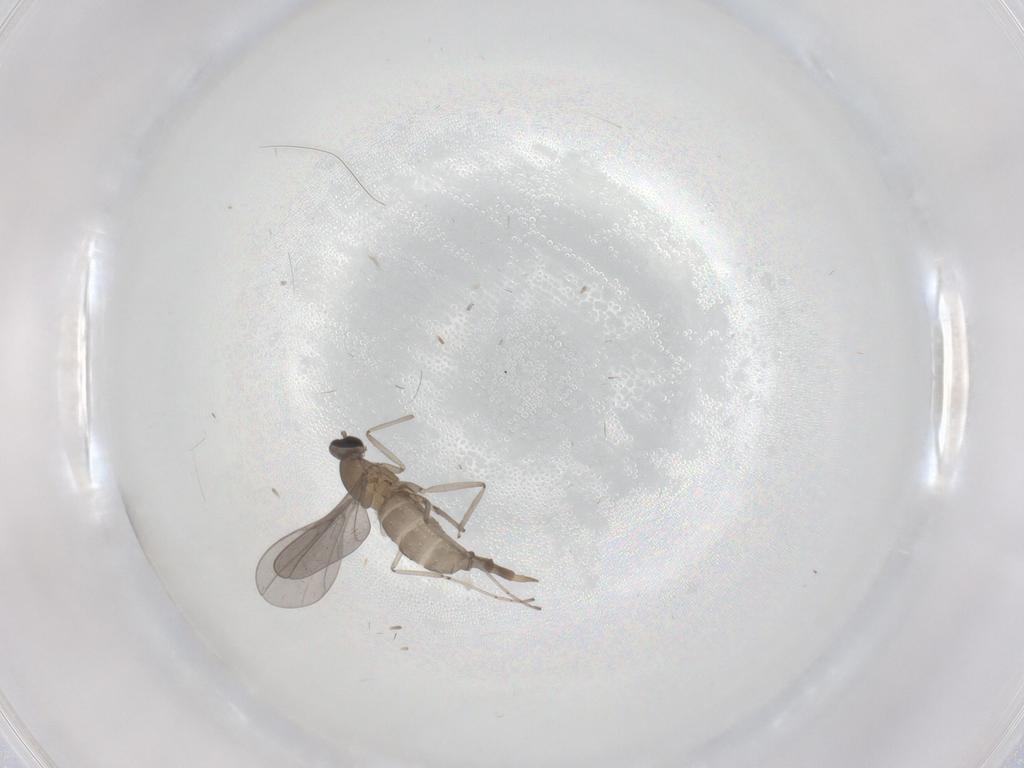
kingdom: Animalia
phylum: Arthropoda
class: Insecta
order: Diptera
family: Cecidomyiidae
